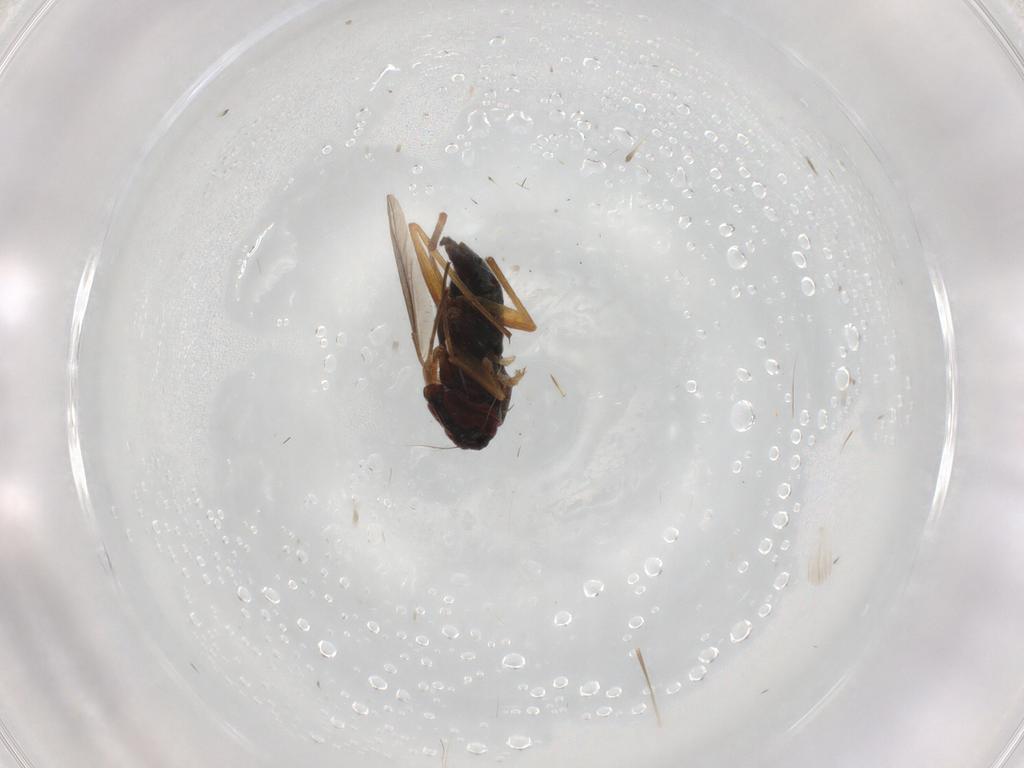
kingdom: Animalia
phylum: Arthropoda
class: Insecta
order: Diptera
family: Dolichopodidae
